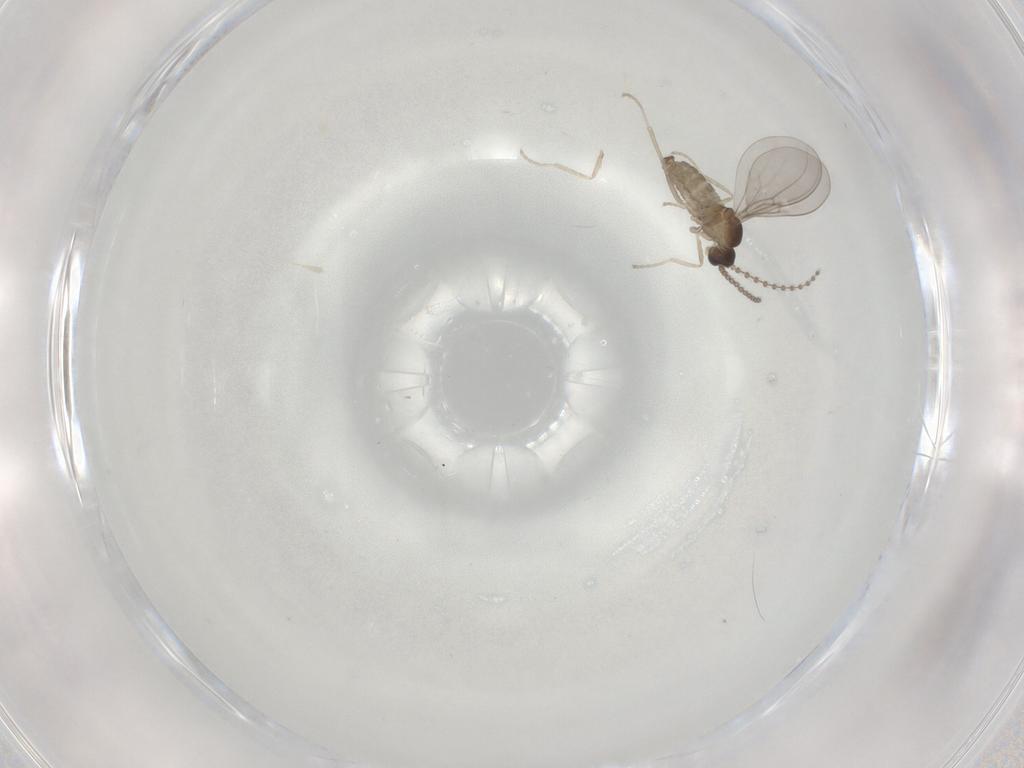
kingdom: Animalia
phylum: Arthropoda
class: Insecta
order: Diptera
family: Cecidomyiidae
